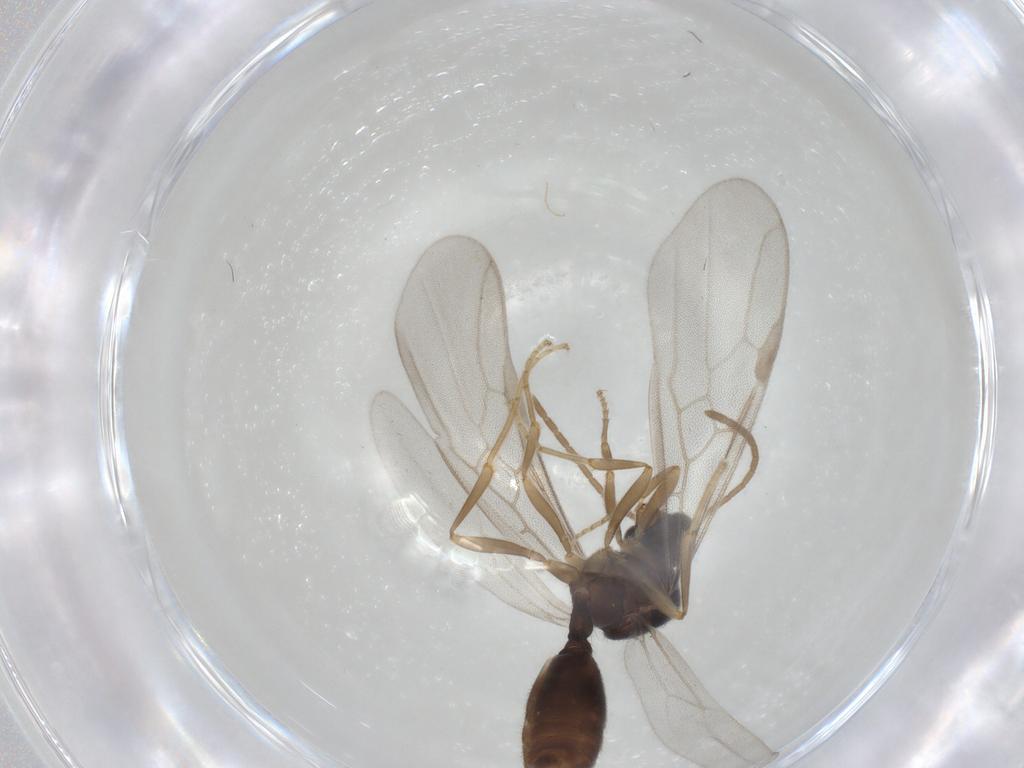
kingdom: Animalia
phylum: Arthropoda
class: Insecta
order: Hymenoptera
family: Formicidae
